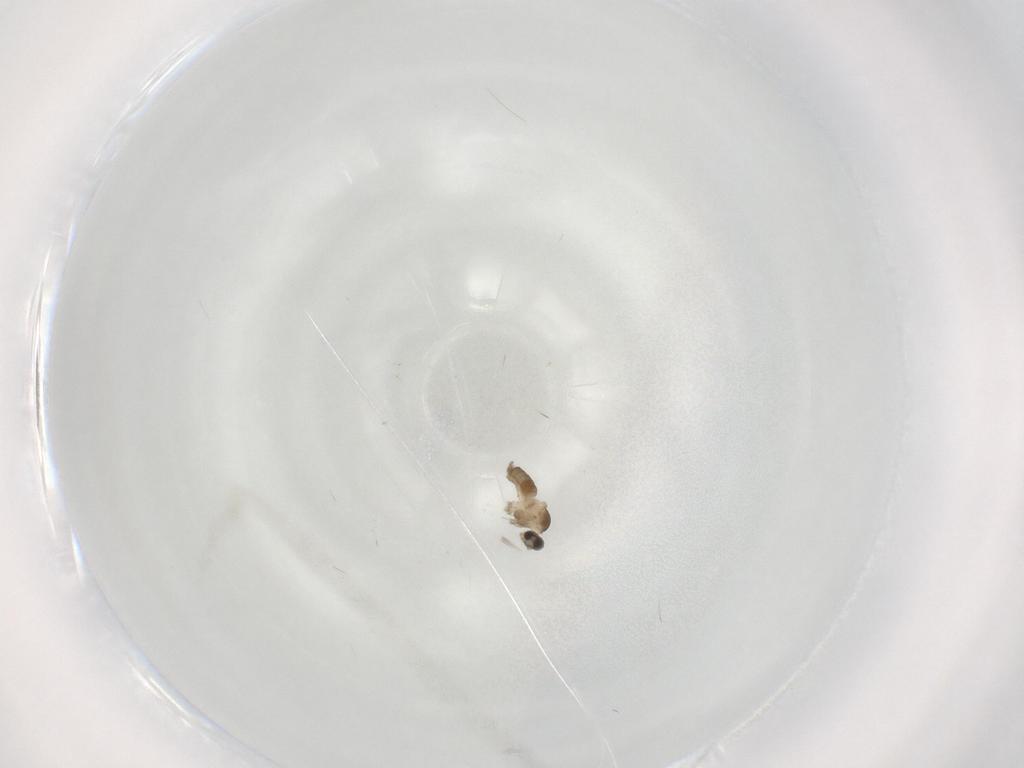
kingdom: Animalia
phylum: Arthropoda
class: Insecta
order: Diptera
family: Cecidomyiidae
